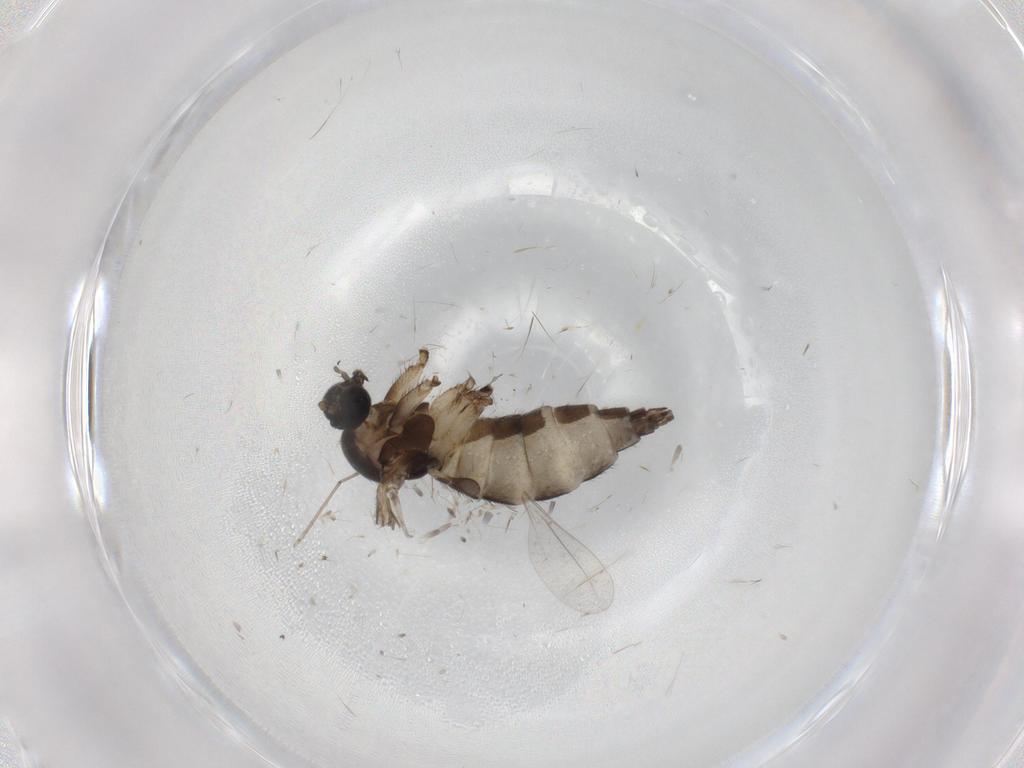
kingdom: Animalia
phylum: Arthropoda
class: Insecta
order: Diptera
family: Sciaridae
